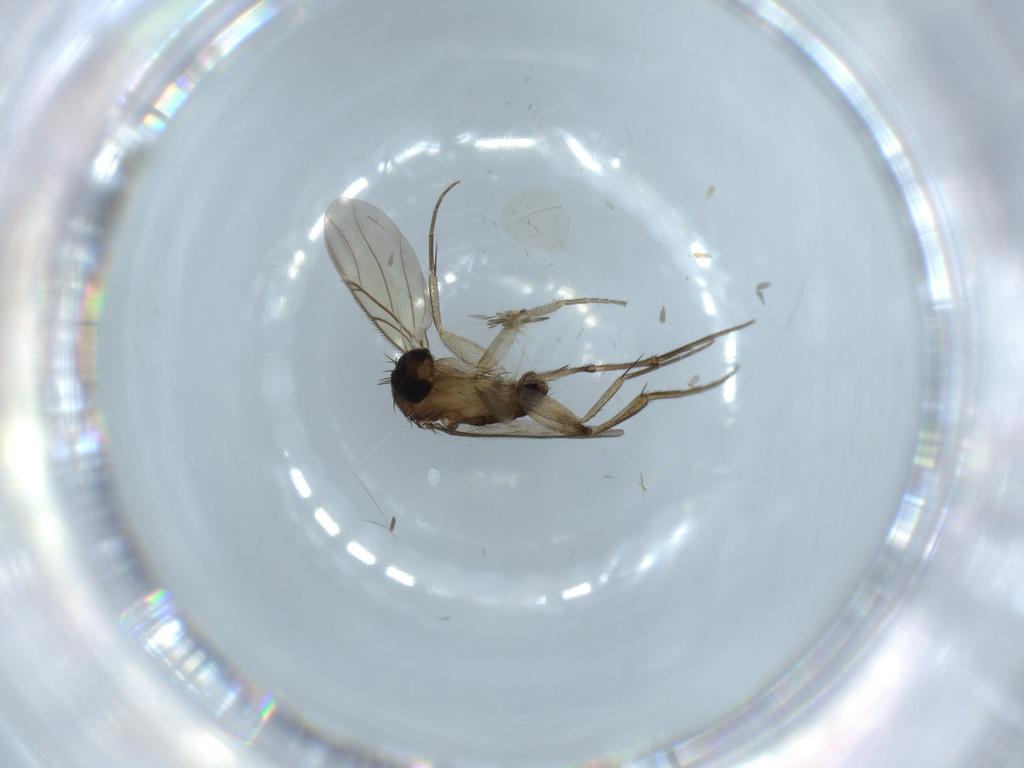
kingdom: Animalia
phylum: Arthropoda
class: Insecta
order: Diptera
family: Phoridae
